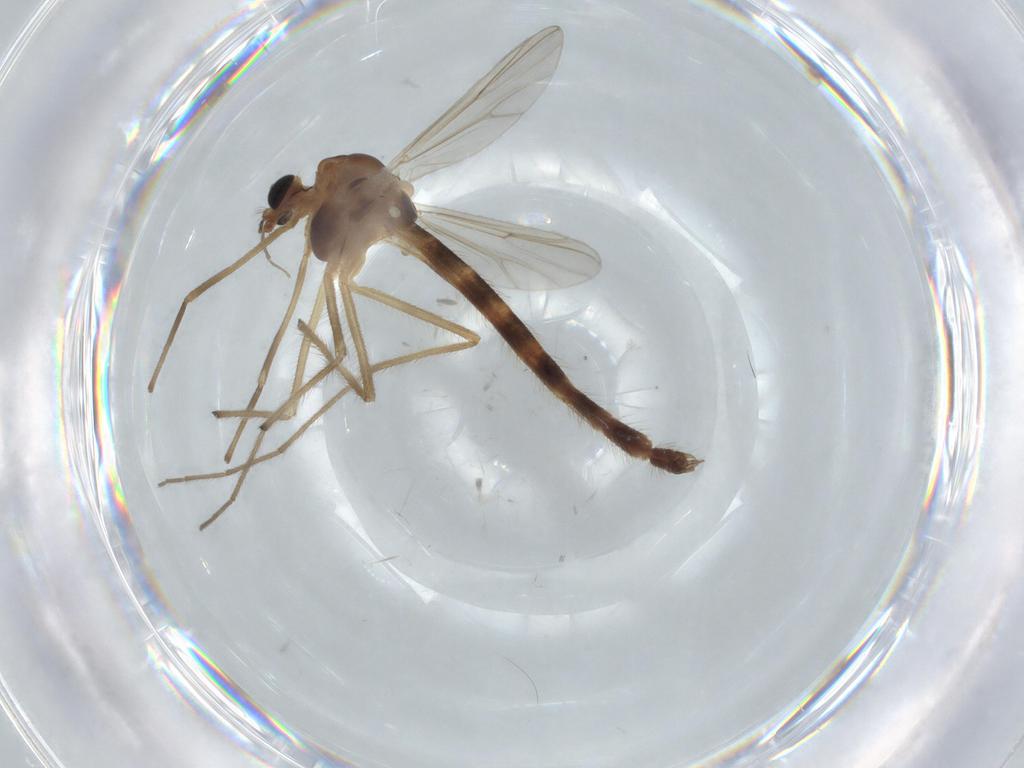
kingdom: Animalia
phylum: Arthropoda
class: Insecta
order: Diptera
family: Chironomidae
